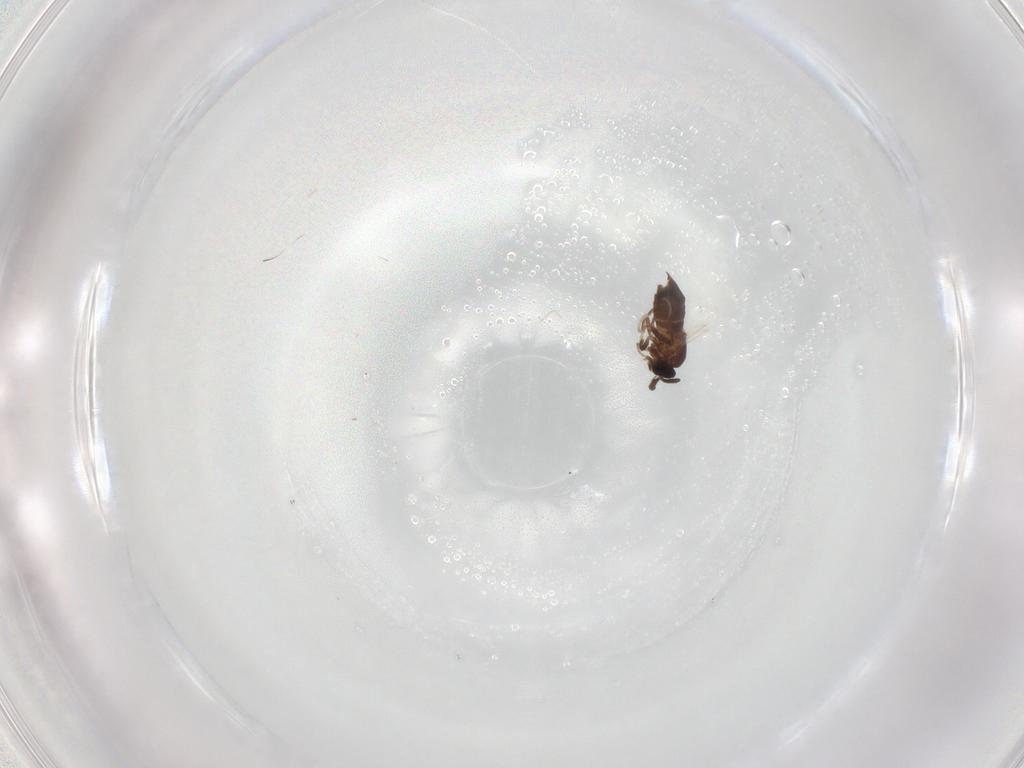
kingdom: Animalia
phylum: Arthropoda
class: Insecta
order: Diptera
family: Scatopsidae
